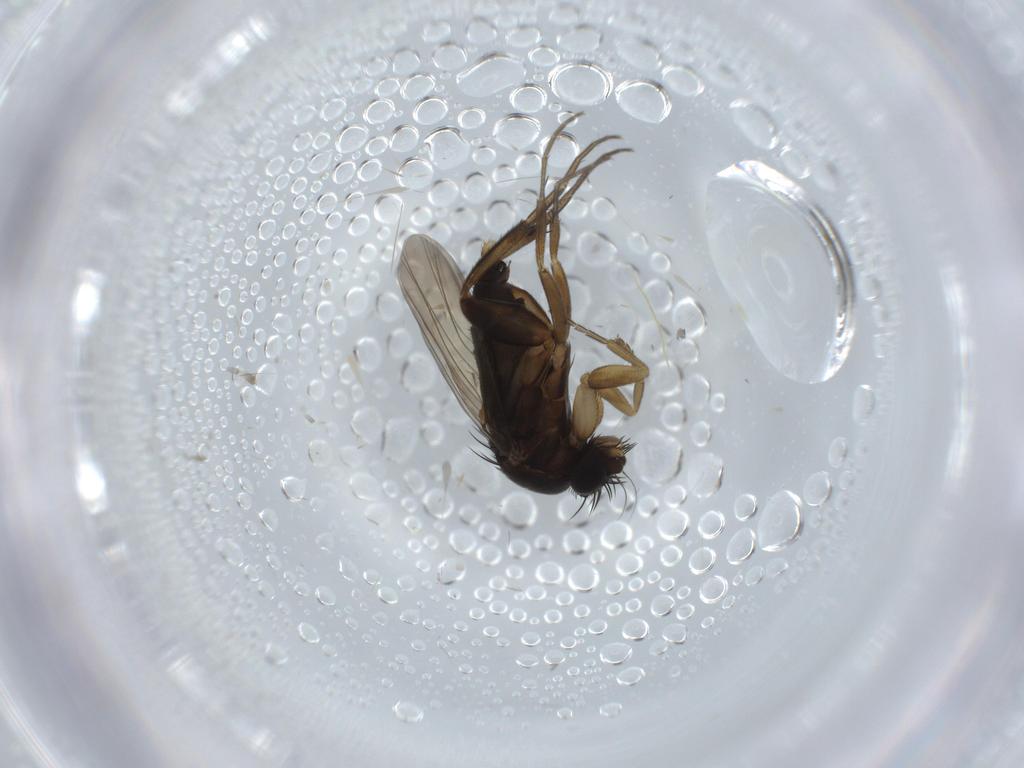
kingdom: Animalia
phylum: Arthropoda
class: Insecta
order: Diptera
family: Phoridae
